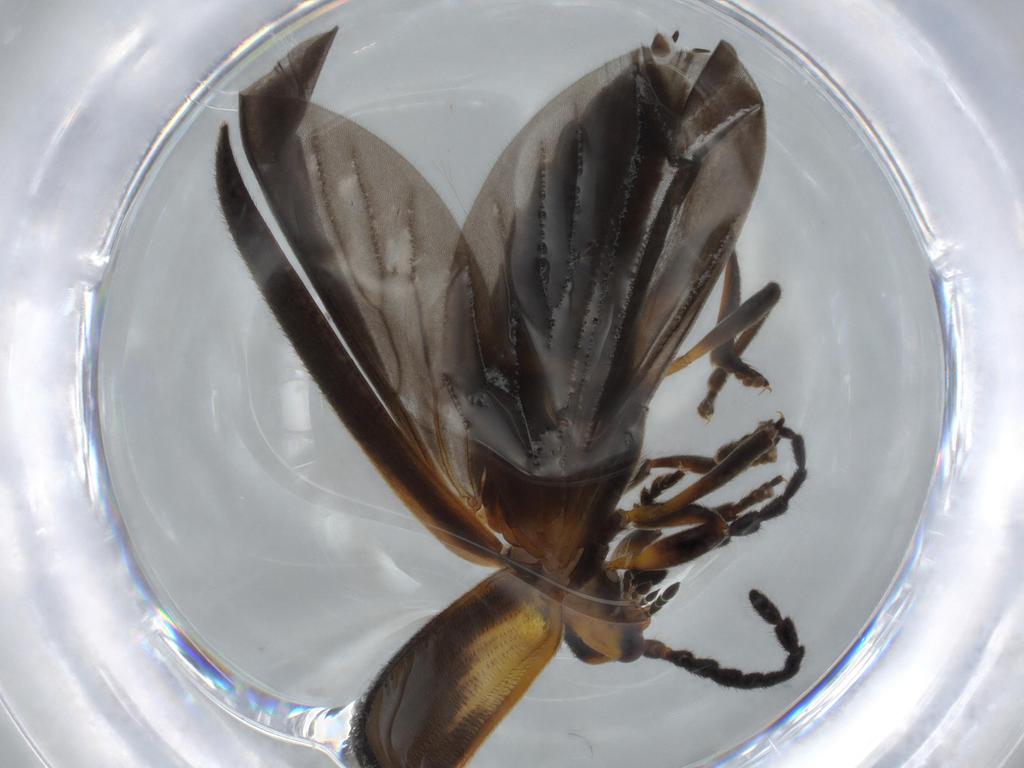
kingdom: Animalia
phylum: Arthropoda
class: Insecta
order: Coleoptera
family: Lycidae
